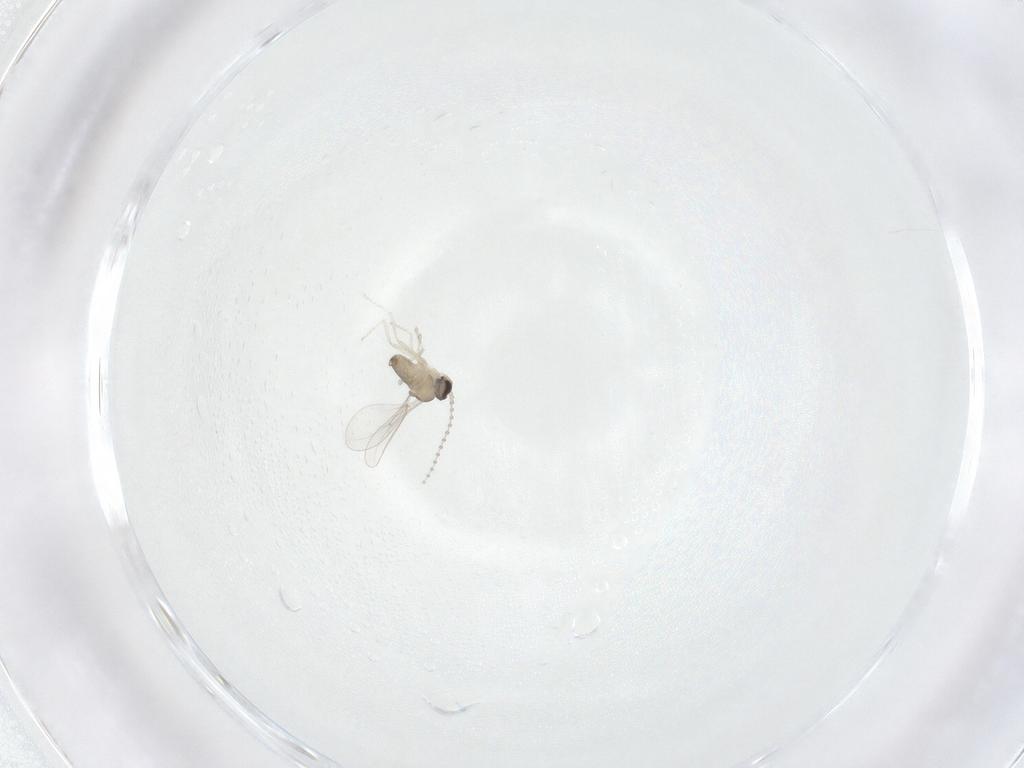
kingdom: Animalia
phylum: Arthropoda
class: Insecta
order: Diptera
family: Cecidomyiidae
